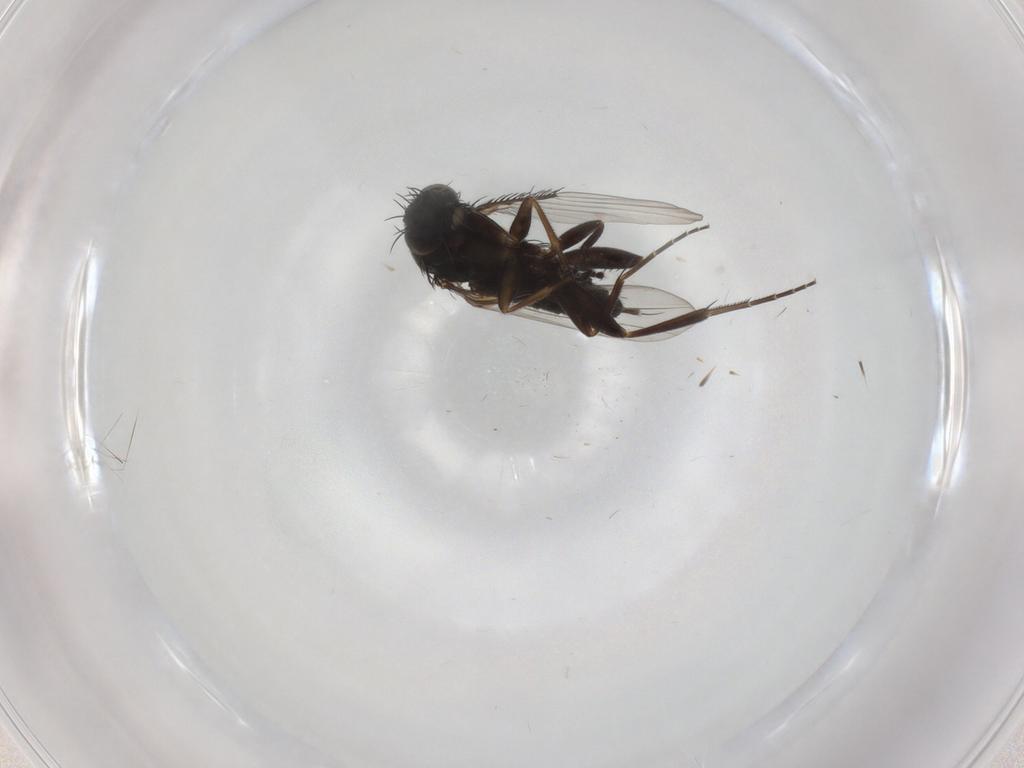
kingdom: Animalia
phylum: Arthropoda
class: Insecta
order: Diptera
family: Phoridae
